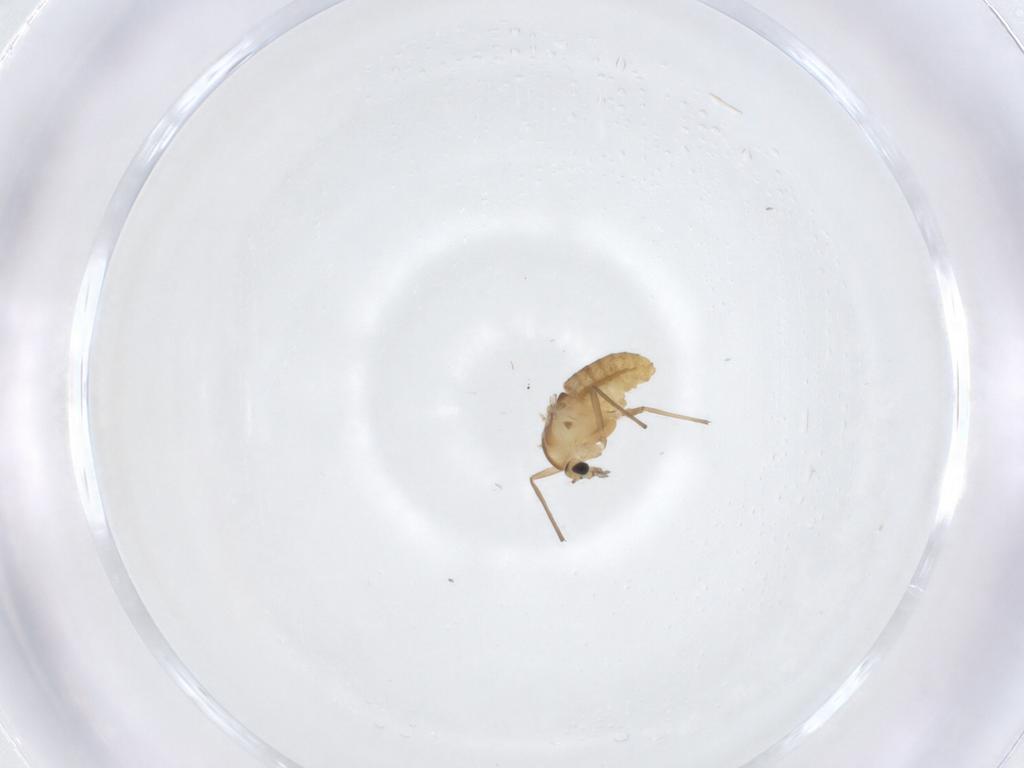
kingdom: Animalia
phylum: Arthropoda
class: Insecta
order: Diptera
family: Chironomidae
